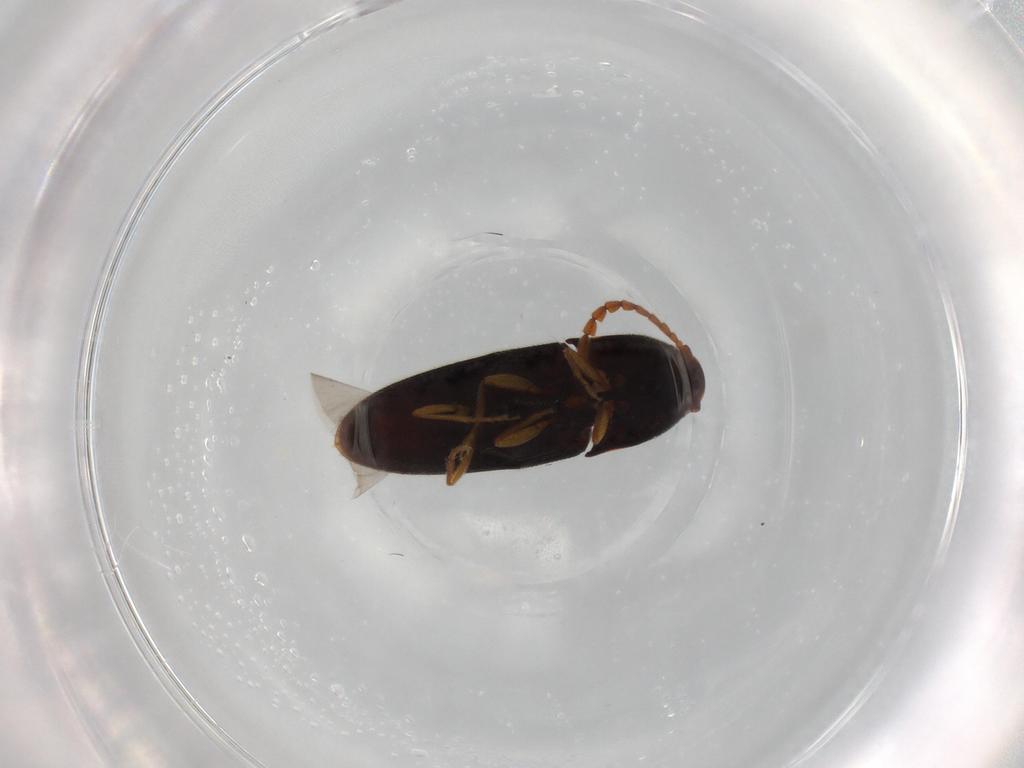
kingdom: Animalia
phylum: Arthropoda
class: Insecta
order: Coleoptera
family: Elateridae
